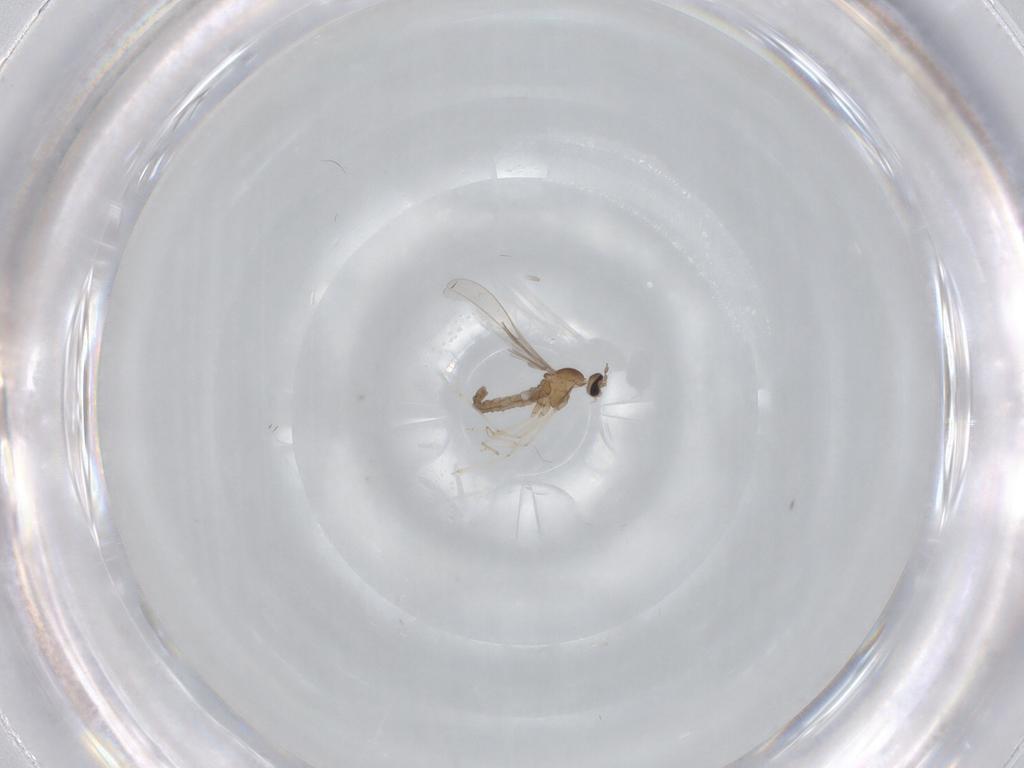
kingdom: Animalia
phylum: Arthropoda
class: Insecta
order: Diptera
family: Cecidomyiidae
